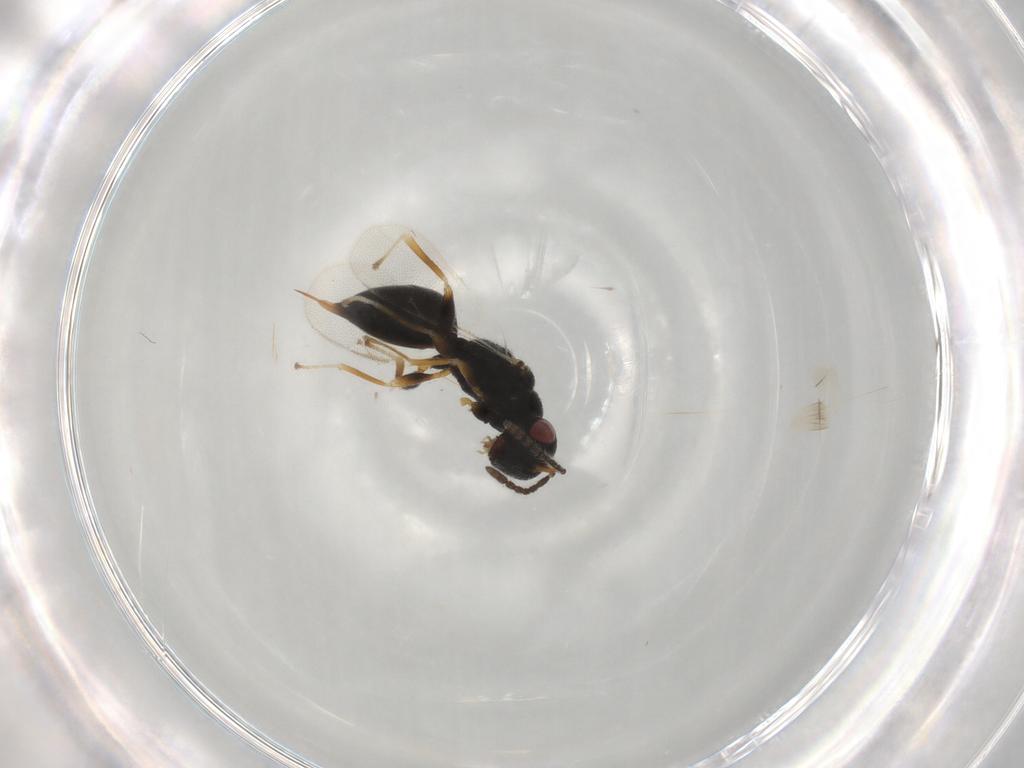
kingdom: Animalia
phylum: Arthropoda
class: Insecta
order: Hymenoptera
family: Eurytomidae
